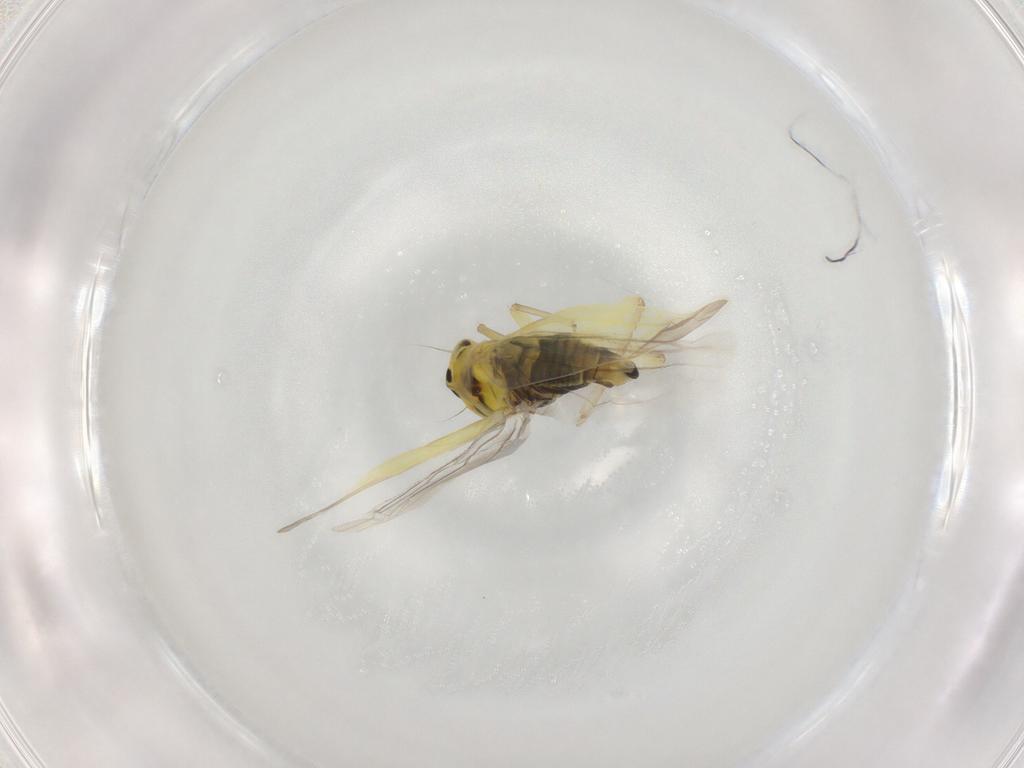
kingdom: Animalia
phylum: Arthropoda
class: Insecta
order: Hemiptera
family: Cicadellidae
